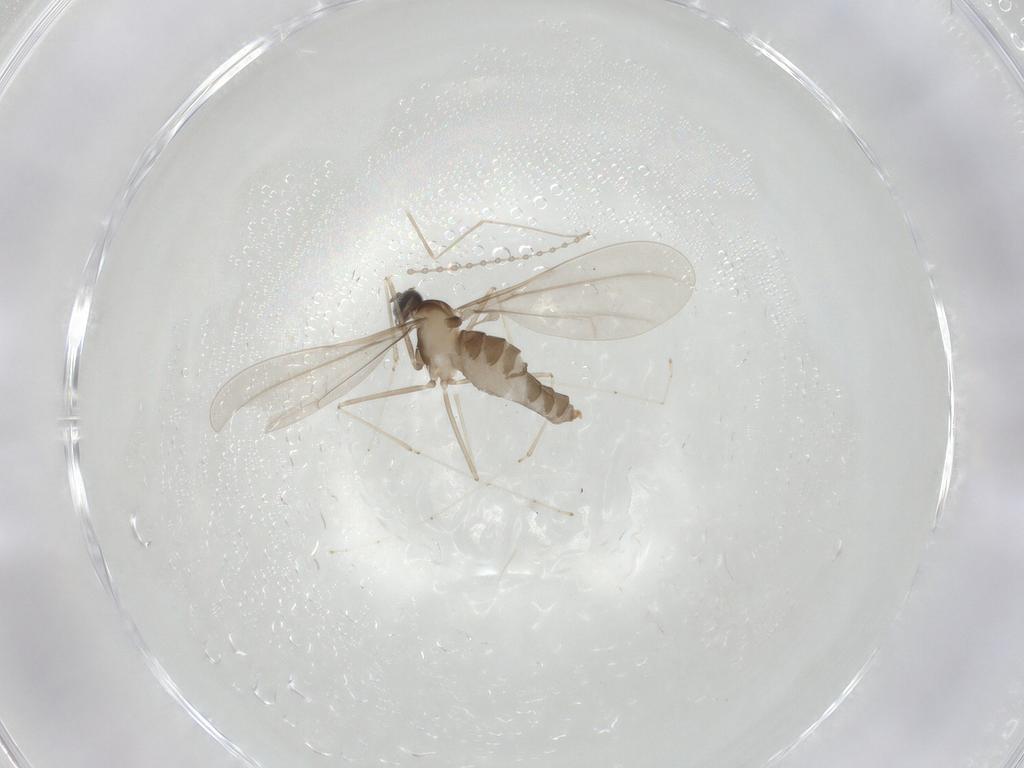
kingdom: Animalia
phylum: Arthropoda
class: Insecta
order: Diptera
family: Cecidomyiidae
